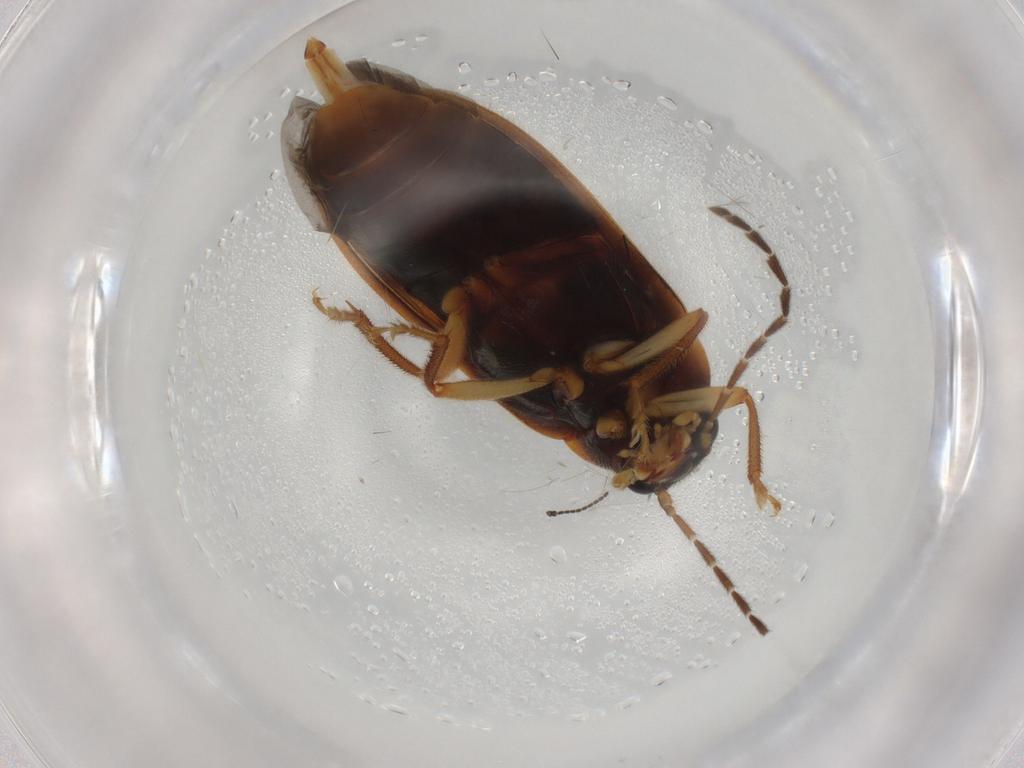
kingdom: Animalia
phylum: Arthropoda
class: Insecta
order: Coleoptera
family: Ptilodactylidae
